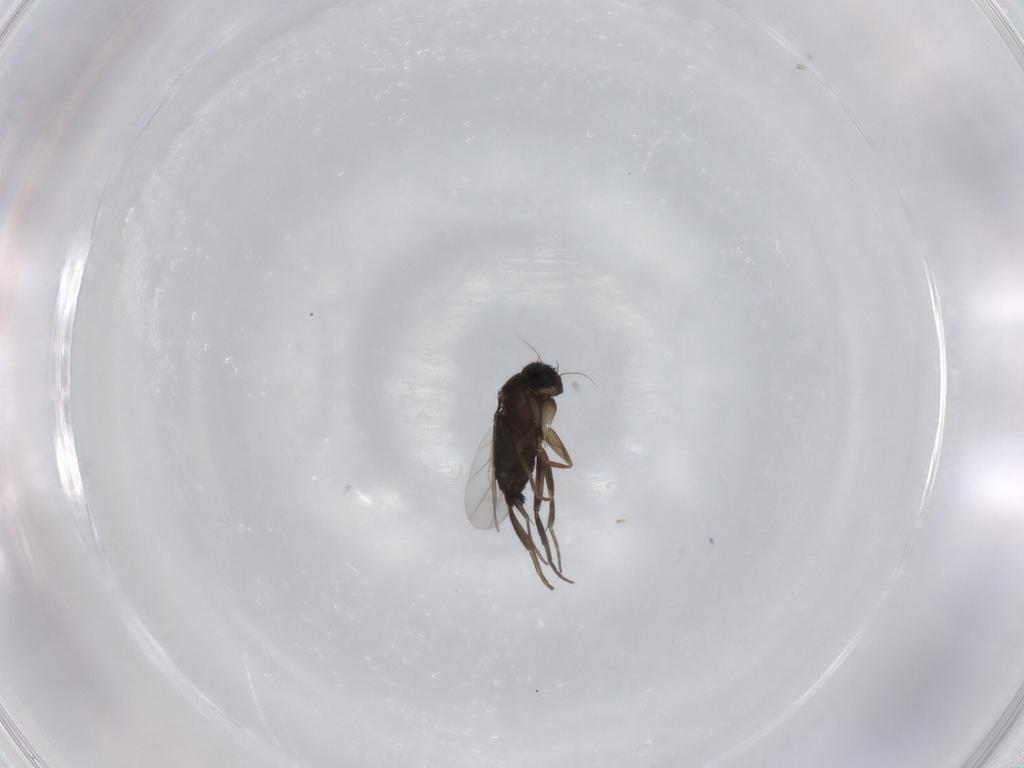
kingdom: Animalia
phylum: Arthropoda
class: Insecta
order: Diptera
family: Phoridae
